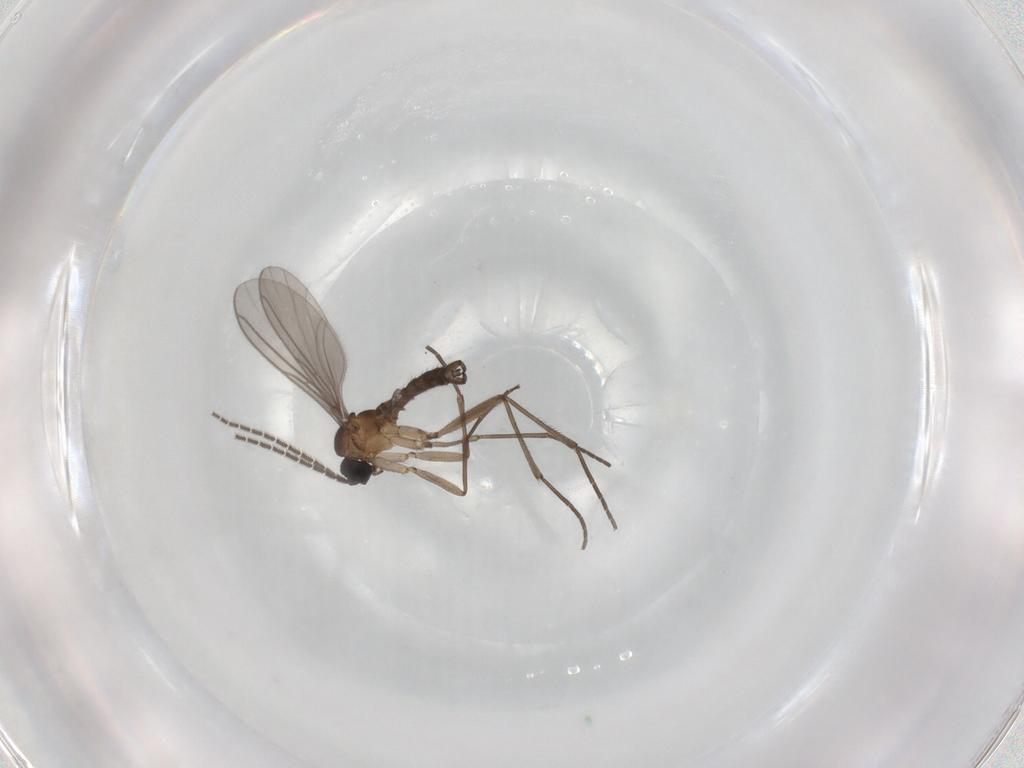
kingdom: Animalia
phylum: Arthropoda
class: Insecta
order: Diptera
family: Sciaridae
